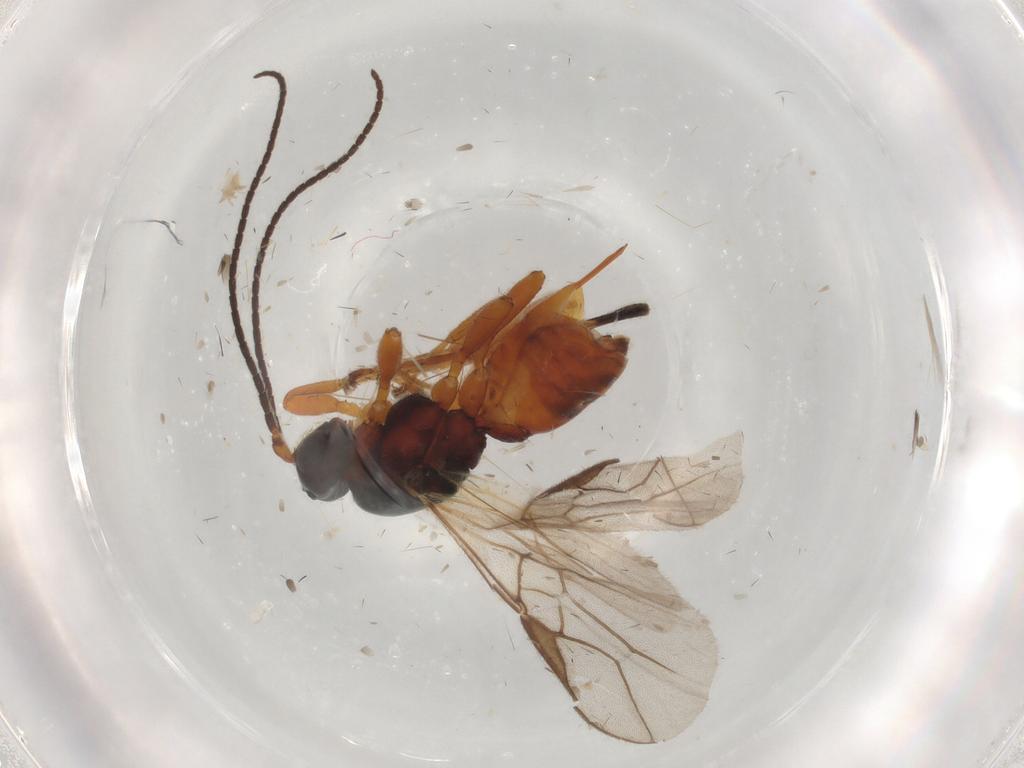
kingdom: Animalia
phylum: Arthropoda
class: Insecta
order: Hymenoptera
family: Braconidae
